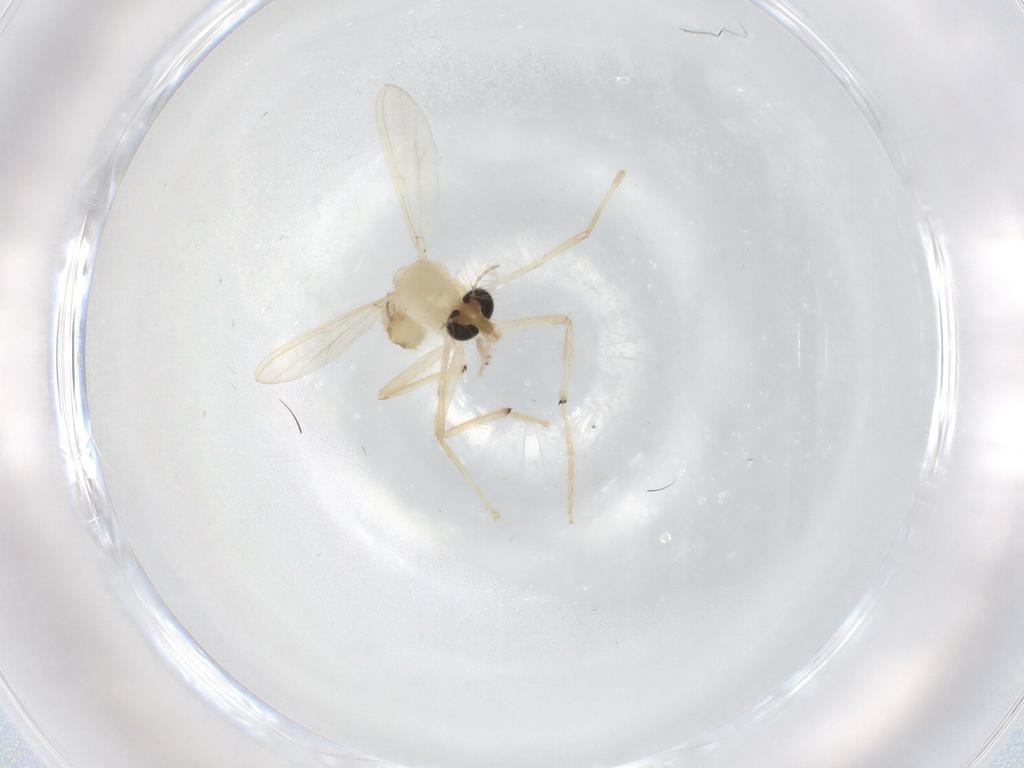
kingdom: Animalia
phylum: Arthropoda
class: Insecta
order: Diptera
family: Chironomidae
